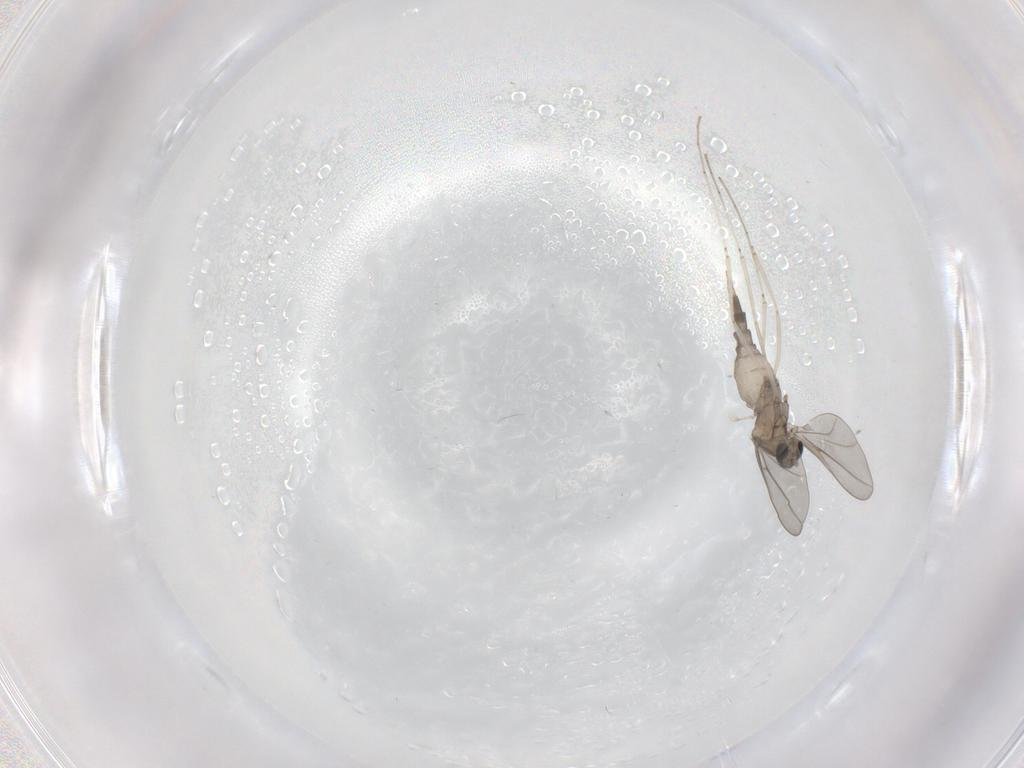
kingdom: Animalia
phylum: Arthropoda
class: Insecta
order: Diptera
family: Cecidomyiidae
